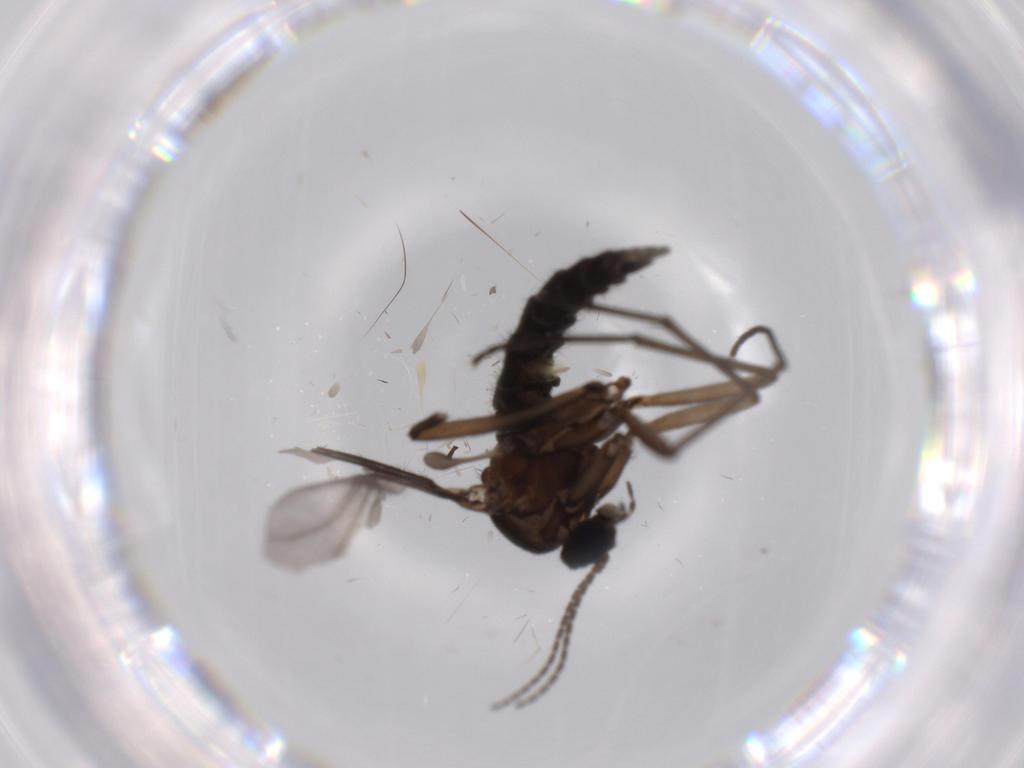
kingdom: Animalia
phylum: Arthropoda
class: Insecta
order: Diptera
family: Sciaridae
